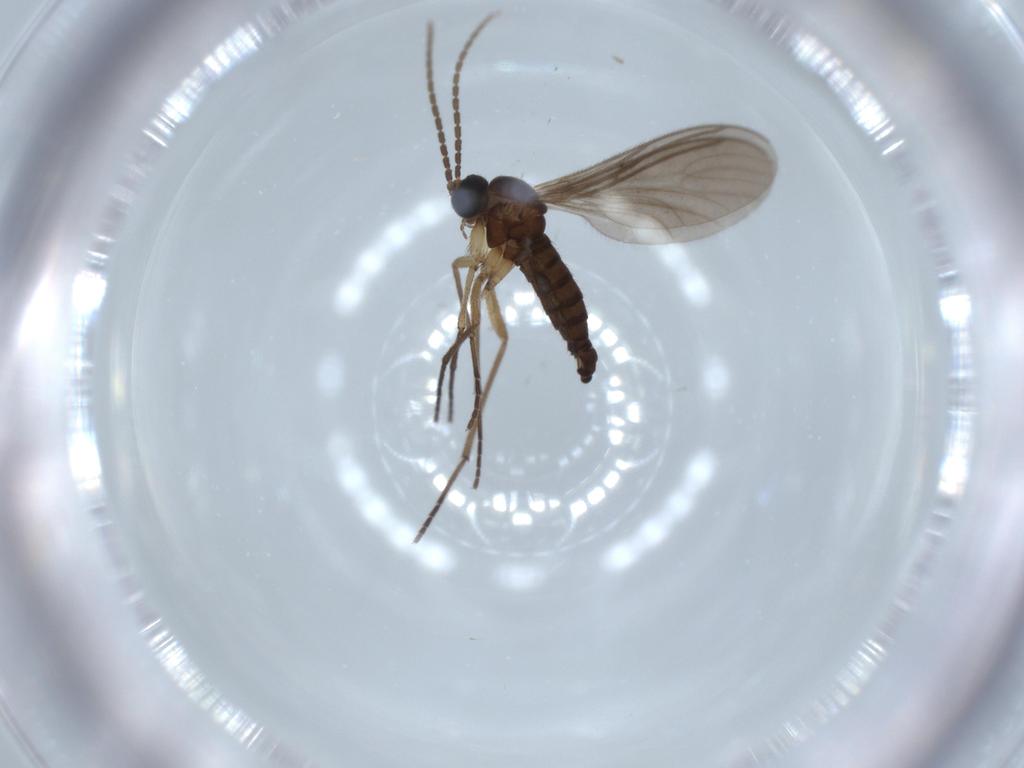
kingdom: Animalia
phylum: Arthropoda
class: Insecta
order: Diptera
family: Sciaridae
